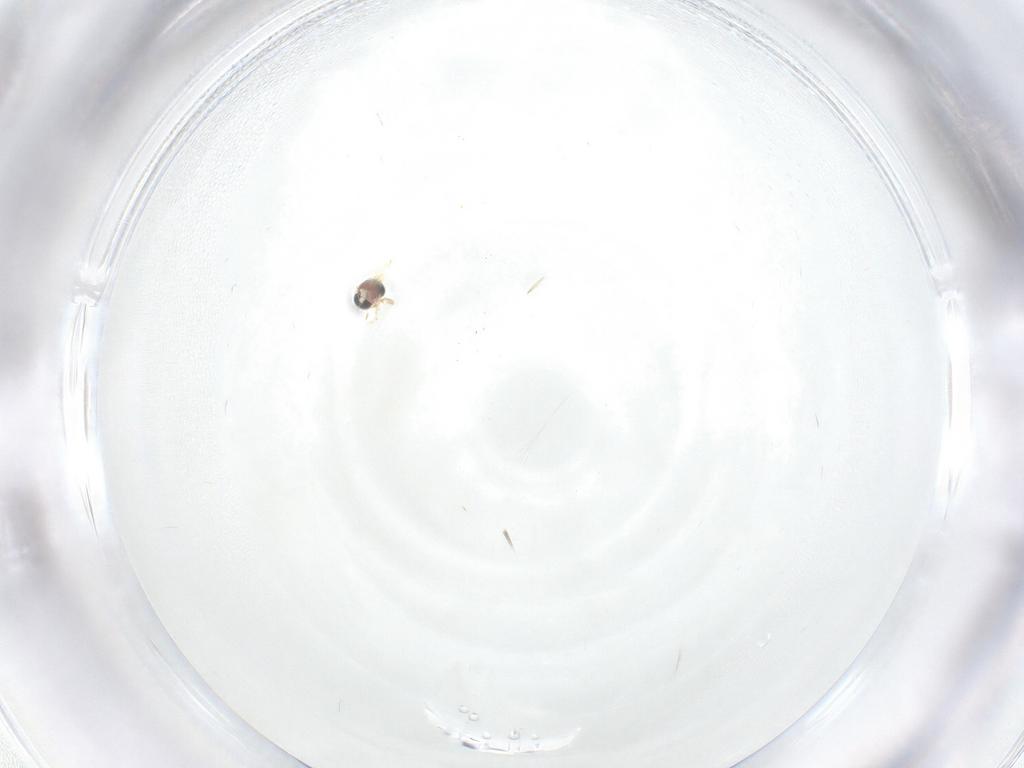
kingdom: Animalia
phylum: Arthropoda
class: Insecta
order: Lepidoptera
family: Nepticulidae
